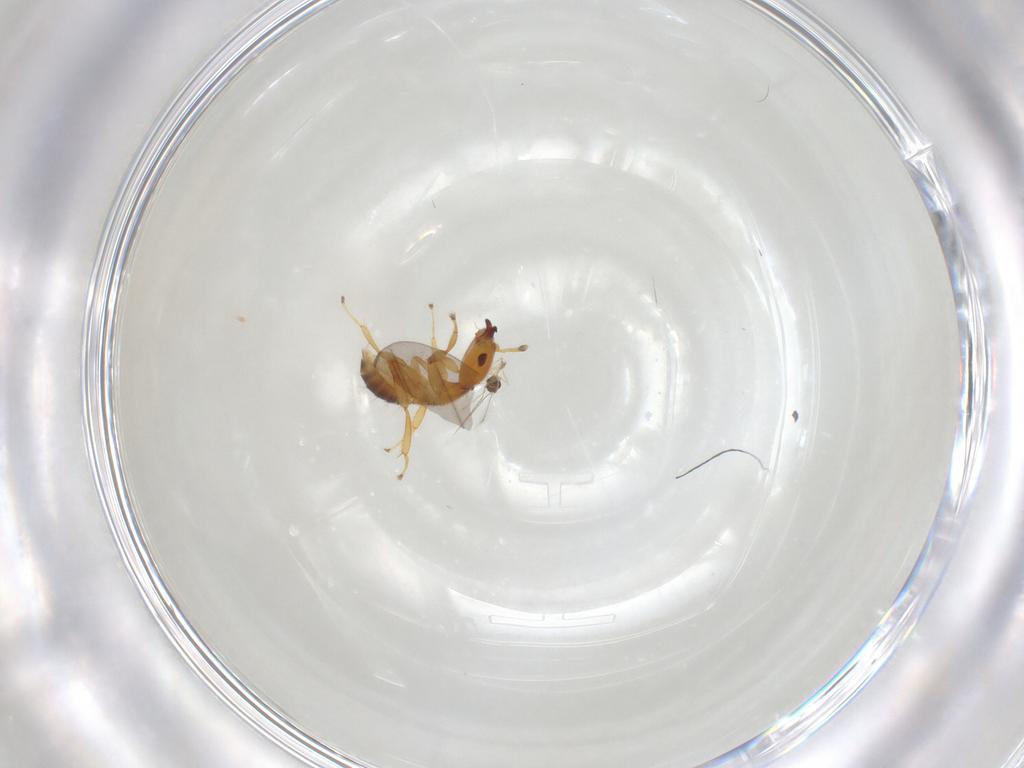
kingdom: Animalia
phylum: Arthropoda
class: Insecta
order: Hymenoptera
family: Pteromalidae
